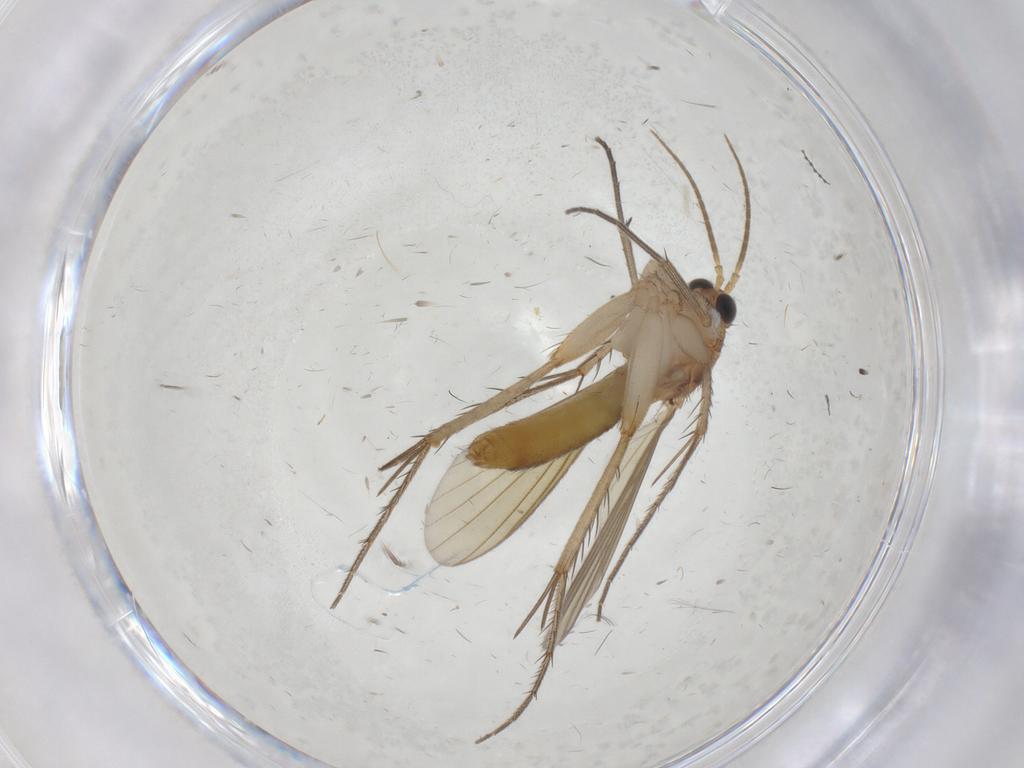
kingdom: Animalia
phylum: Arthropoda
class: Insecta
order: Diptera
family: Mycetophilidae
